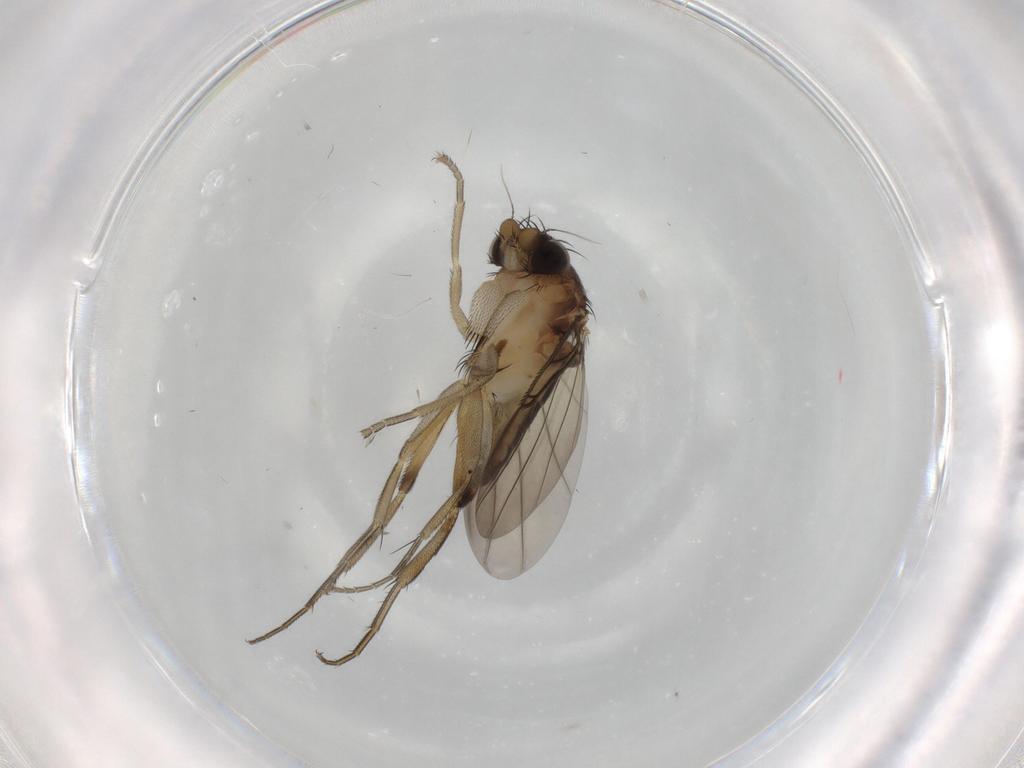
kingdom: Animalia
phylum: Arthropoda
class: Insecta
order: Diptera
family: Phoridae
